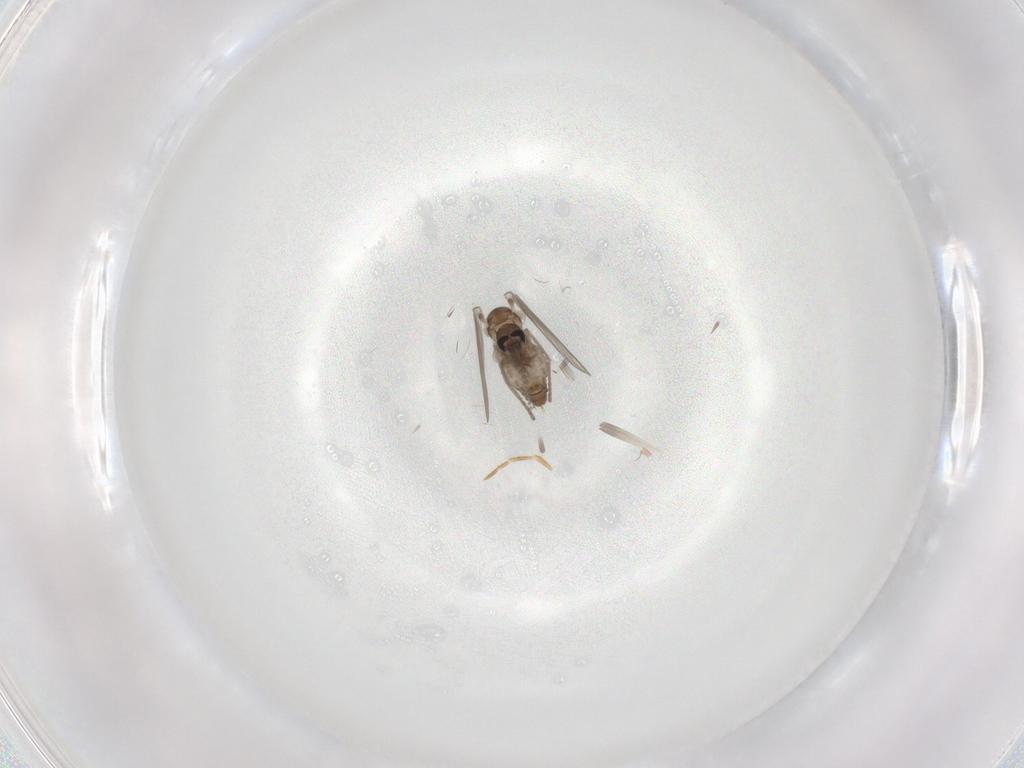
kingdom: Animalia
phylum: Arthropoda
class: Insecta
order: Diptera
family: Psychodidae
